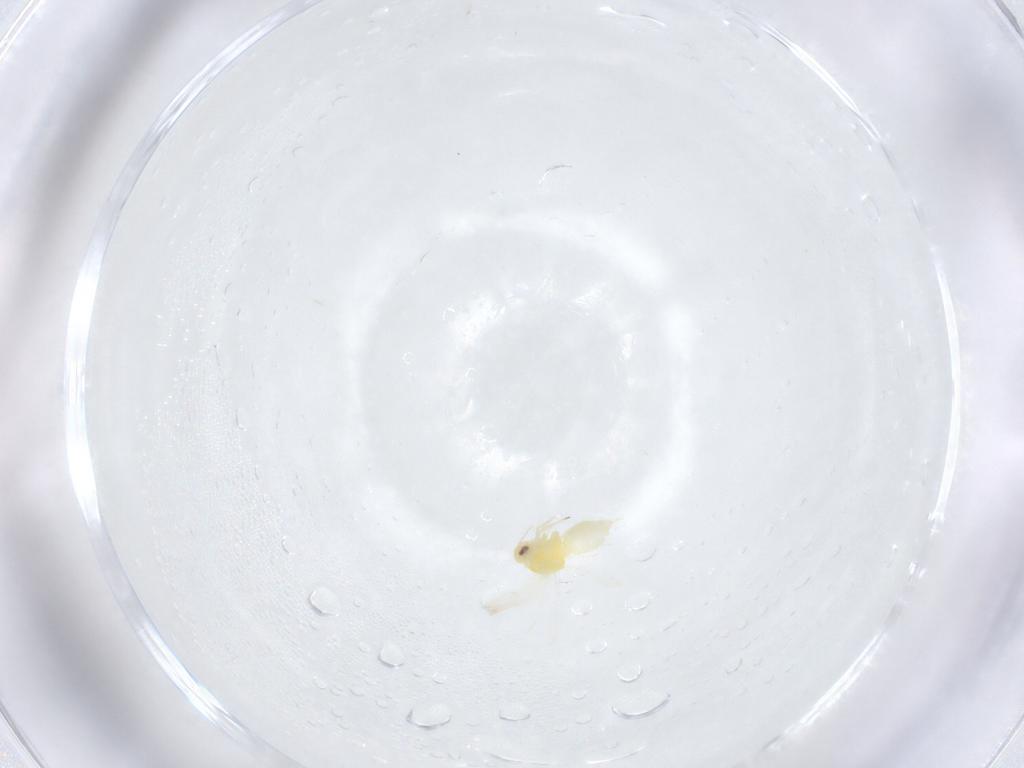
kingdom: Animalia
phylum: Arthropoda
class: Insecta
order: Hemiptera
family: Aleyrodidae
